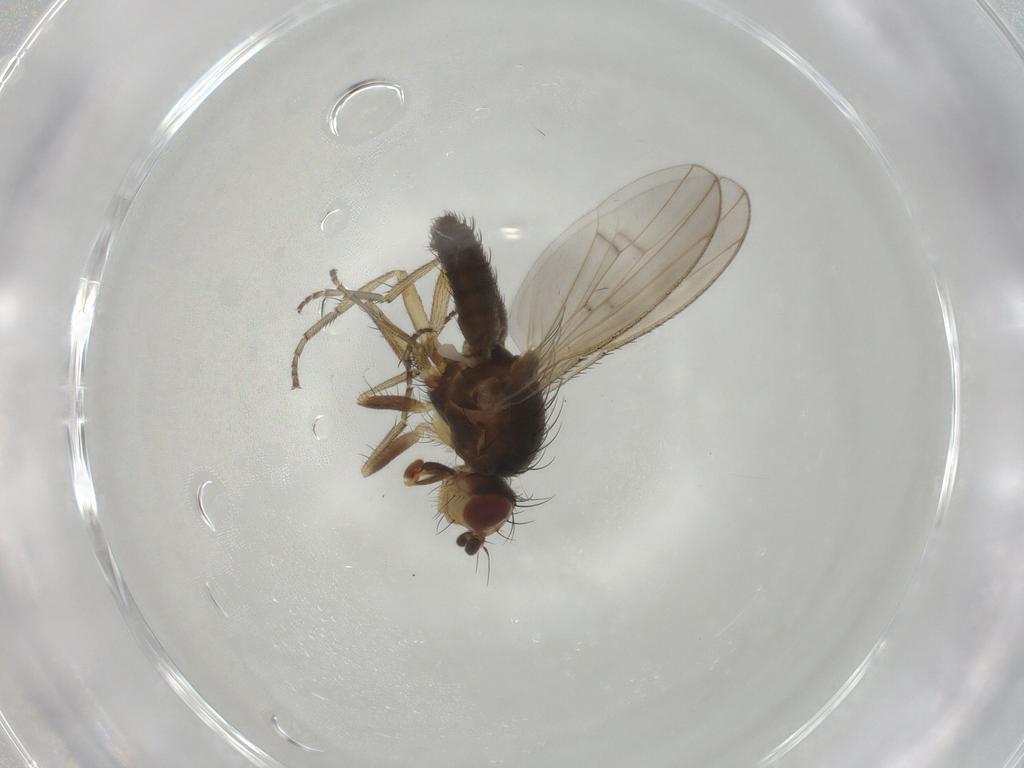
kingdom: Animalia
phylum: Arthropoda
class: Insecta
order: Diptera
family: Heleomyzidae
